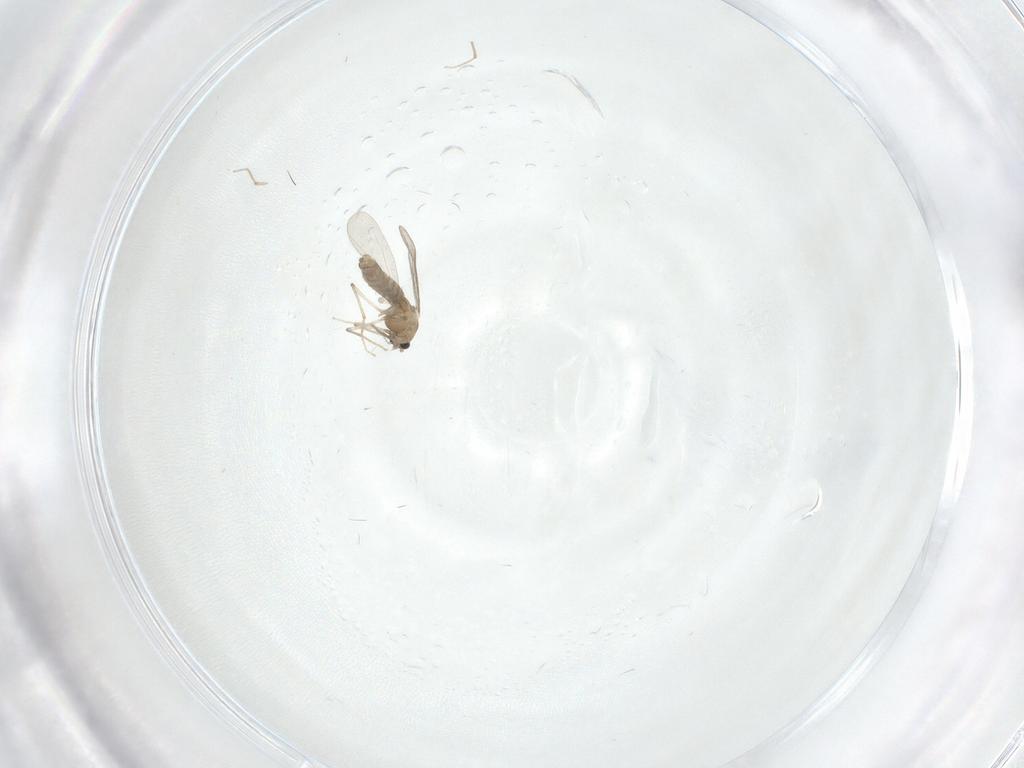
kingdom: Animalia
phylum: Arthropoda
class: Insecta
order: Diptera
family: Chironomidae
